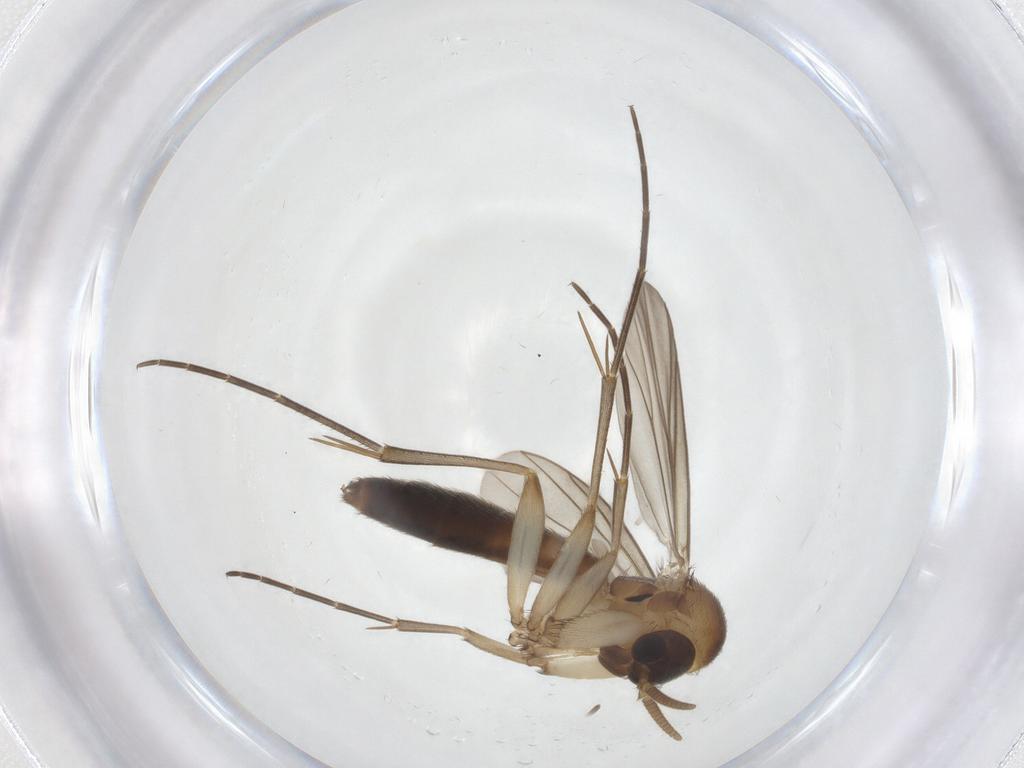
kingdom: Animalia
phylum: Arthropoda
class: Insecta
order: Diptera
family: Mycetophilidae
